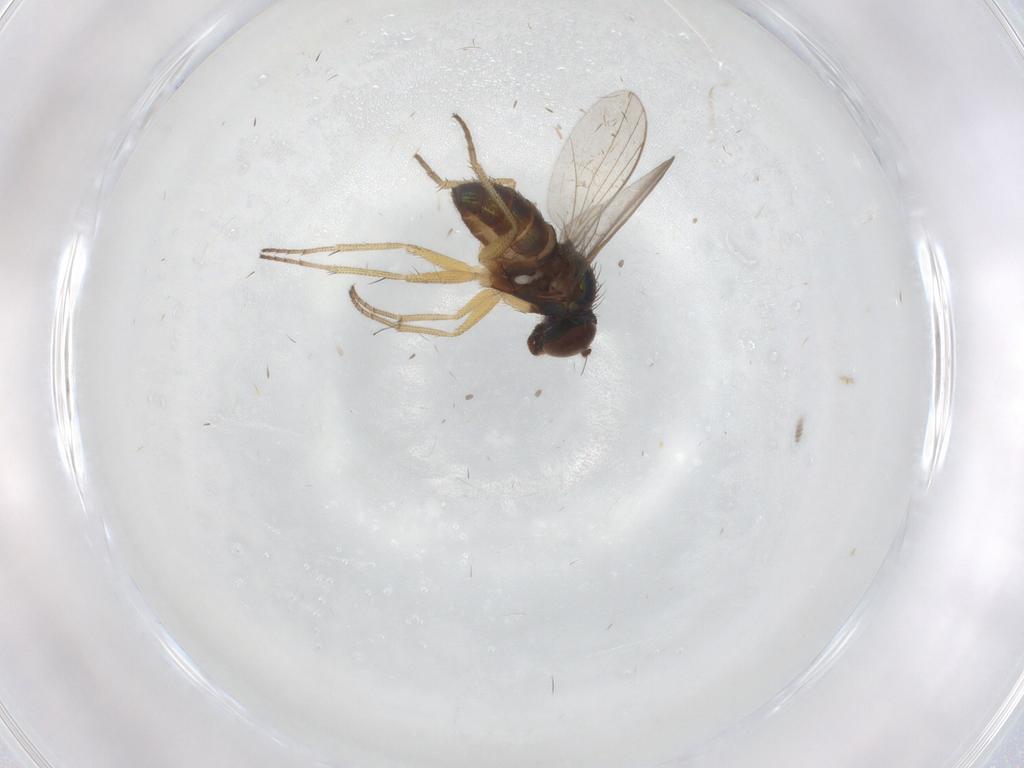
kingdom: Animalia
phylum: Arthropoda
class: Insecta
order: Diptera
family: Dolichopodidae
